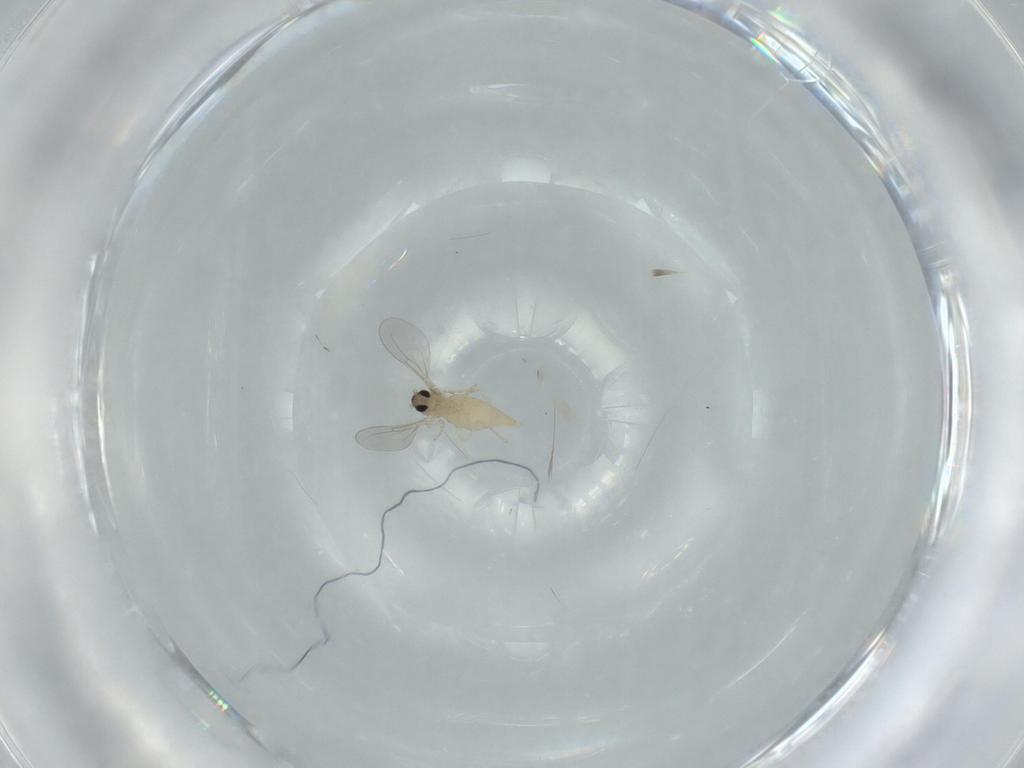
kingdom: Animalia
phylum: Arthropoda
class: Insecta
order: Diptera
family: Cecidomyiidae
